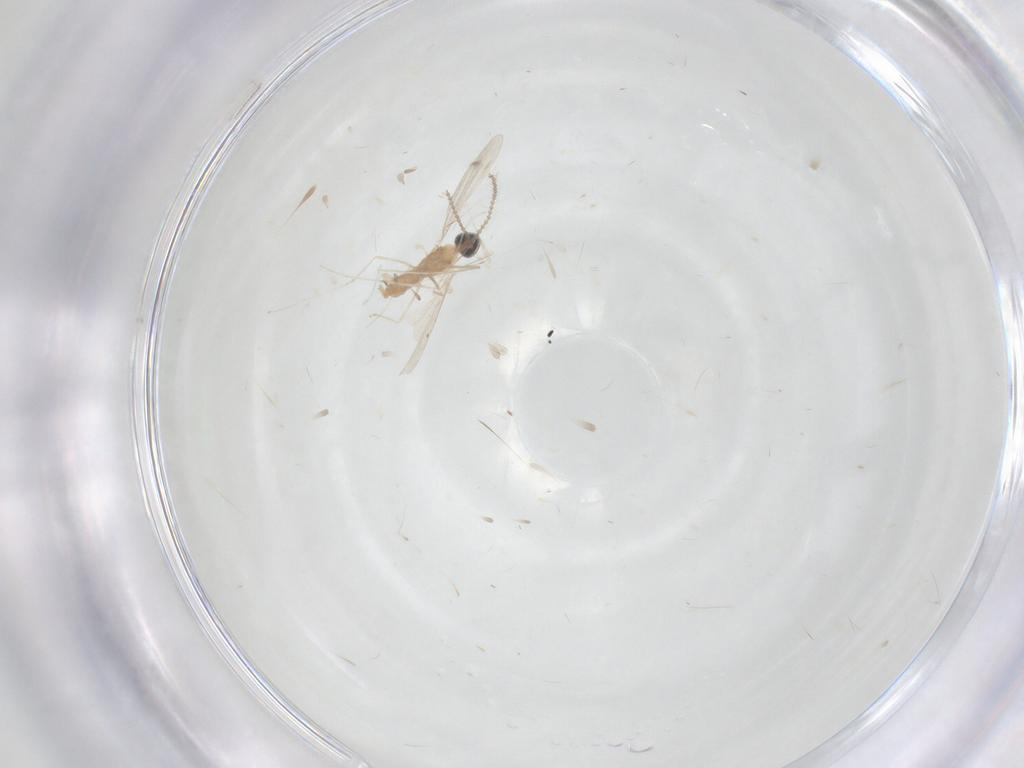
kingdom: Animalia
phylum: Arthropoda
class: Insecta
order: Diptera
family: Ceratopogonidae
